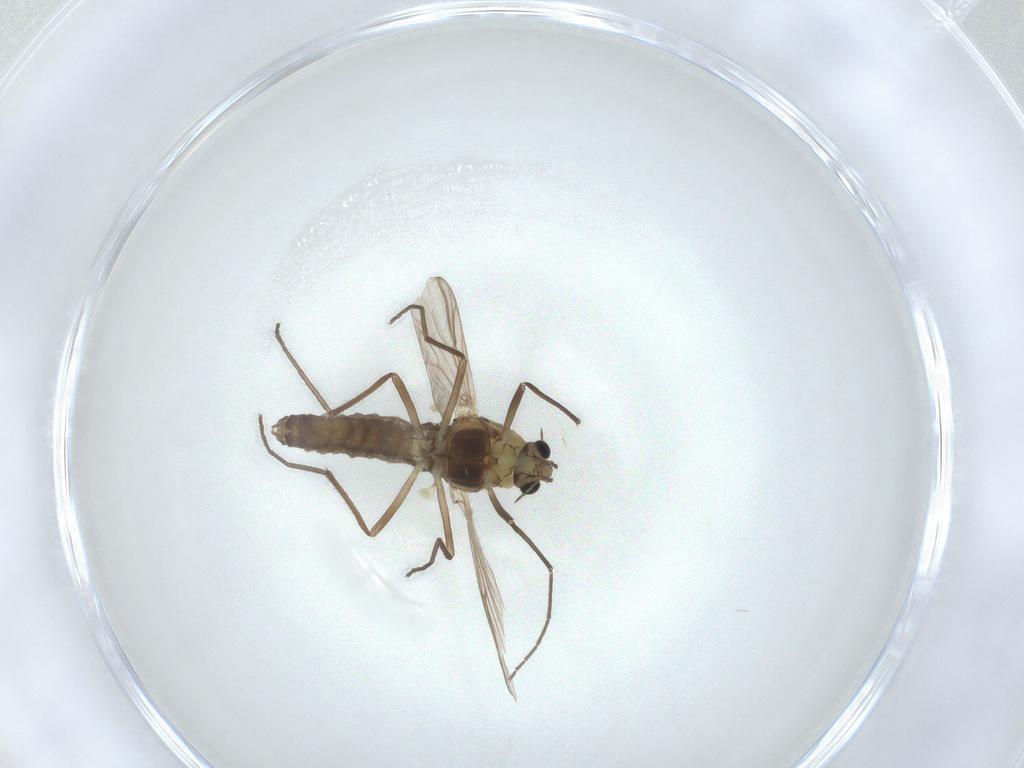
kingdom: Animalia
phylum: Arthropoda
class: Insecta
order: Diptera
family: Chironomidae
